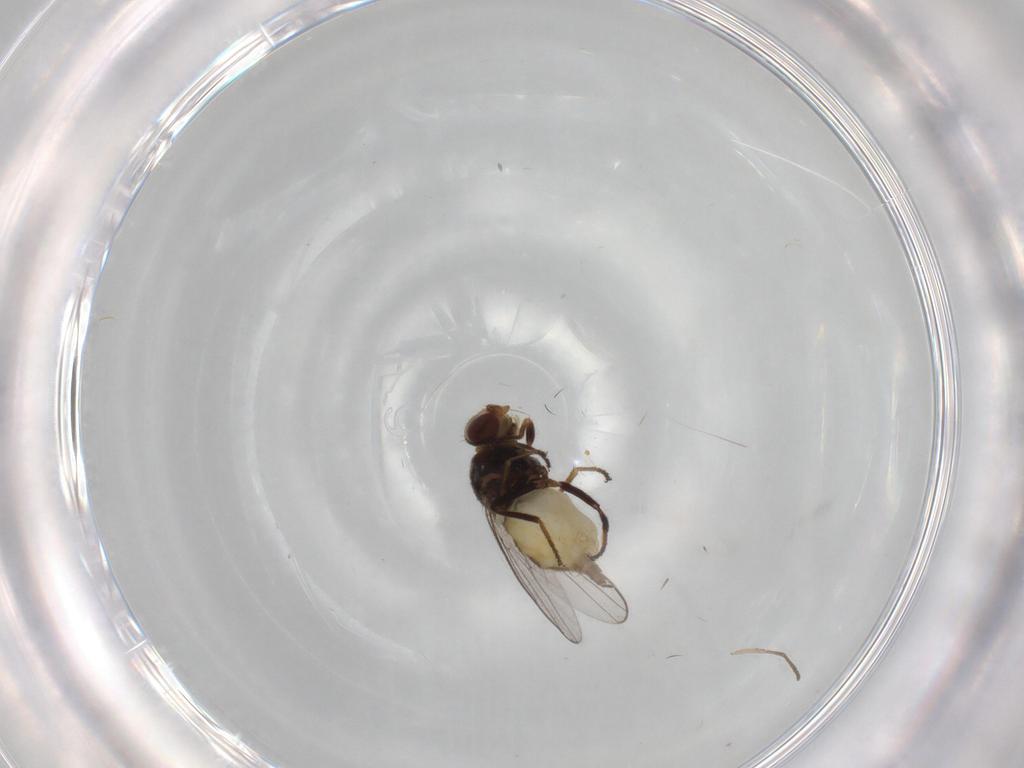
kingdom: Animalia
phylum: Arthropoda
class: Insecta
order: Diptera
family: Chloropidae
